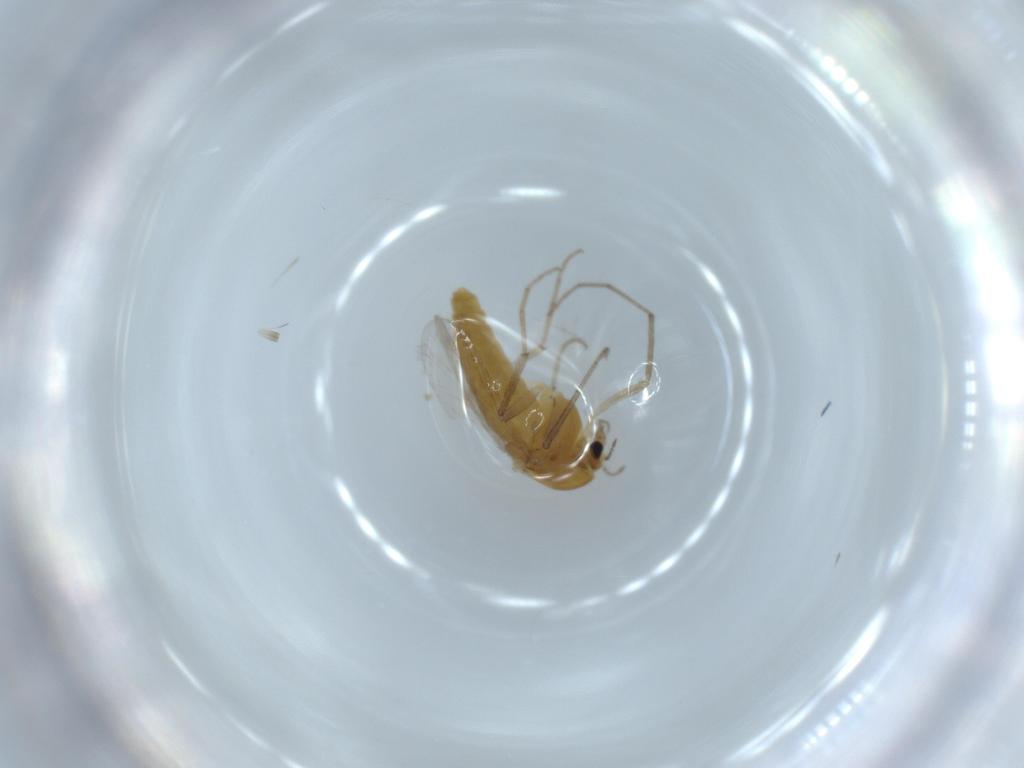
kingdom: Animalia
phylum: Arthropoda
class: Insecta
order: Diptera
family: Chironomidae
